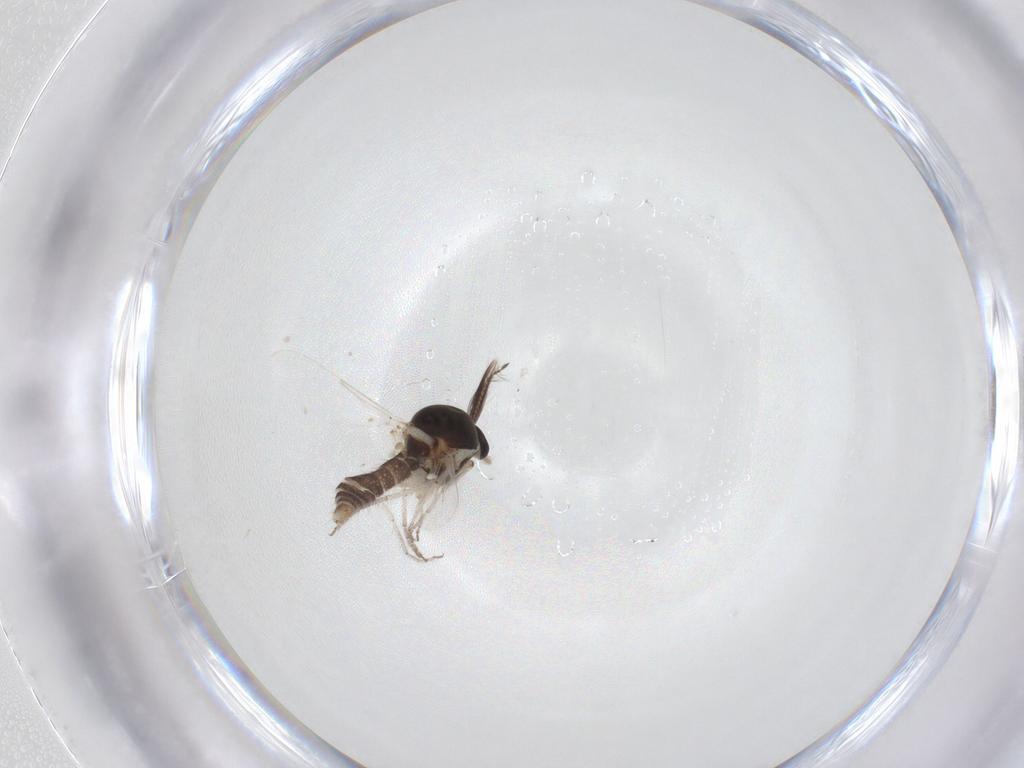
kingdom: Animalia
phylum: Arthropoda
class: Insecta
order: Diptera
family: Ceratopogonidae
